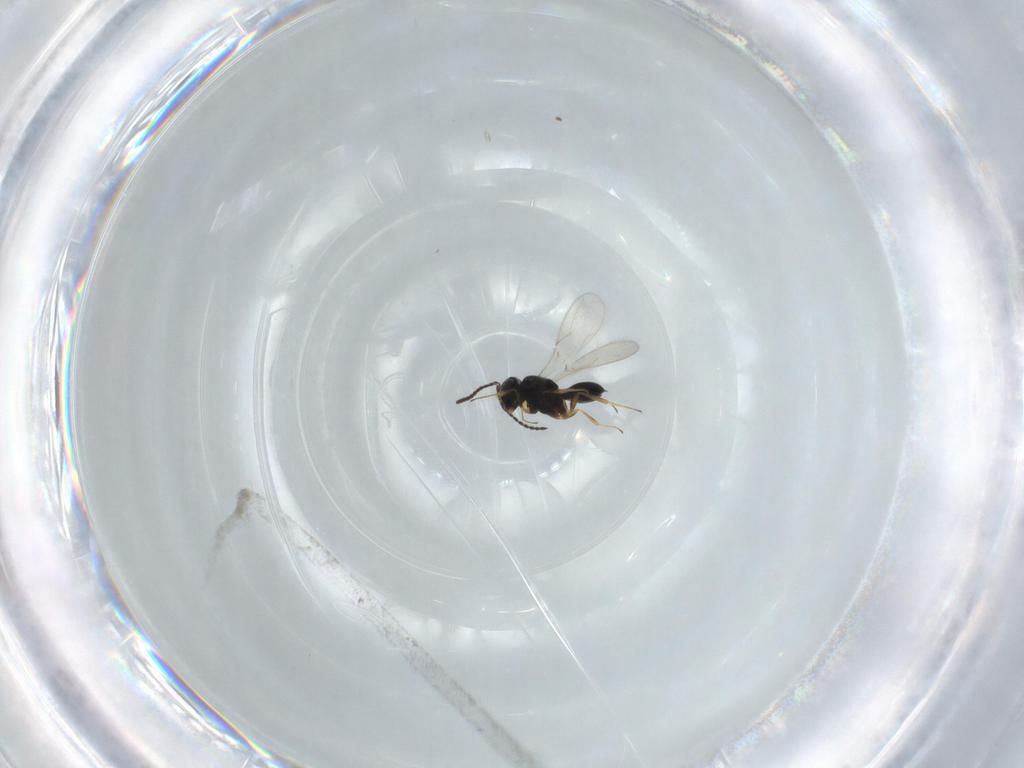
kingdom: Animalia
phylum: Arthropoda
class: Insecta
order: Hymenoptera
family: Scelionidae
